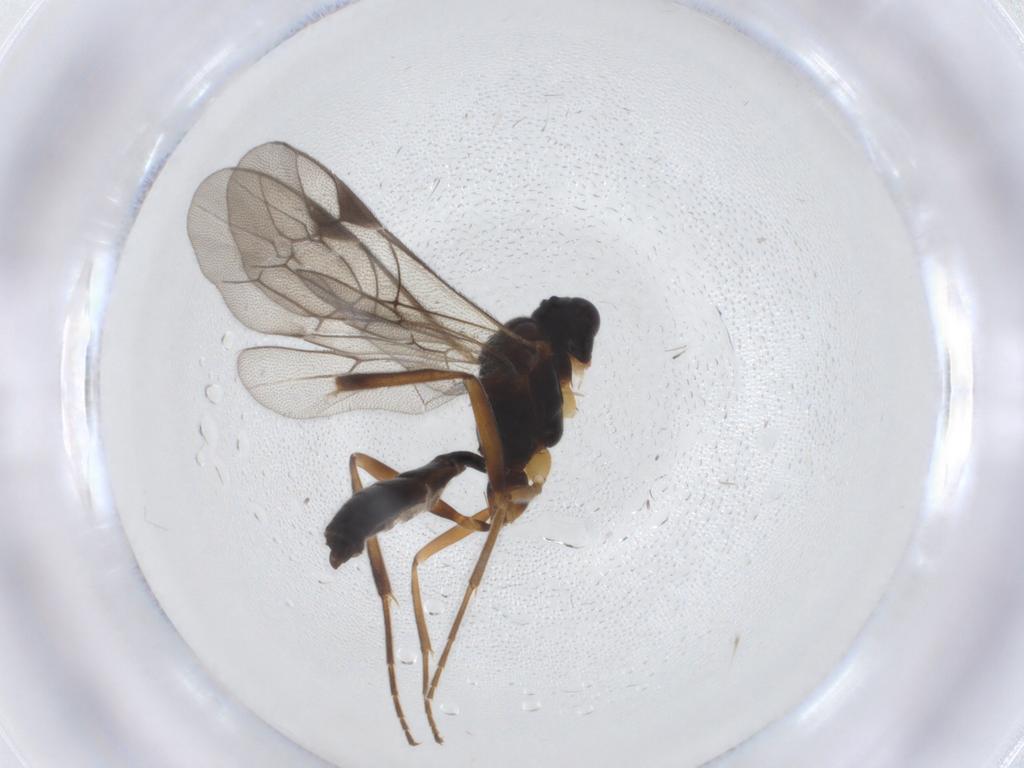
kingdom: Animalia
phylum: Arthropoda
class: Insecta
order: Hymenoptera
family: Ichneumonidae
